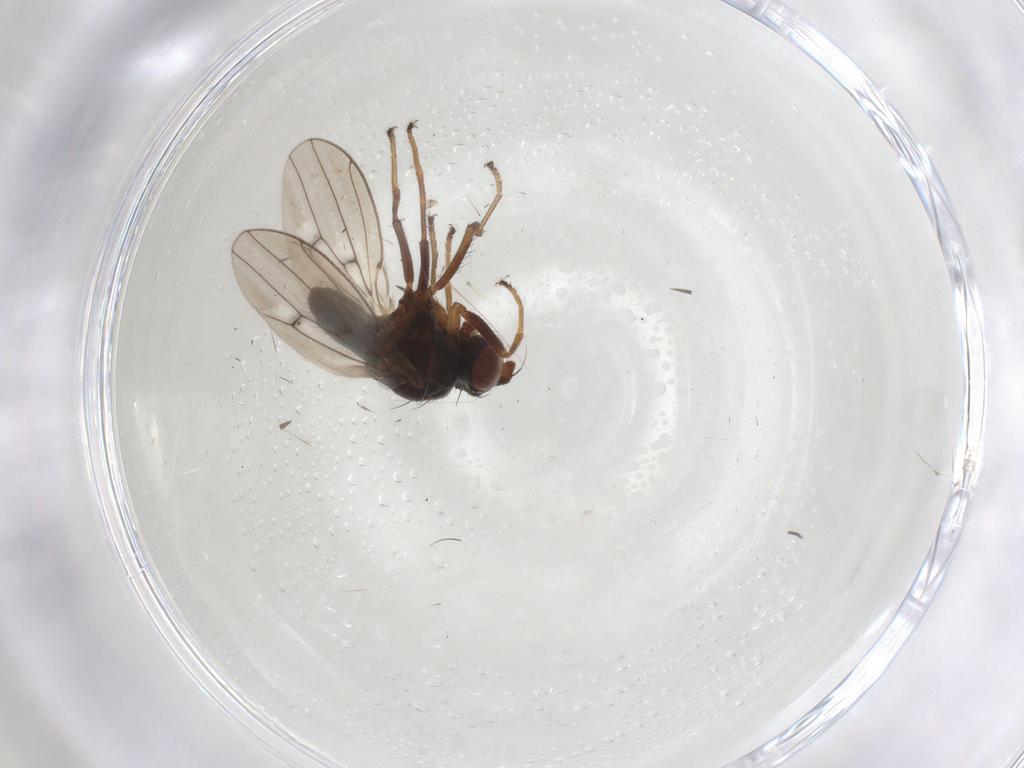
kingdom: Animalia
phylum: Arthropoda
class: Insecta
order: Diptera
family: Ephydridae
